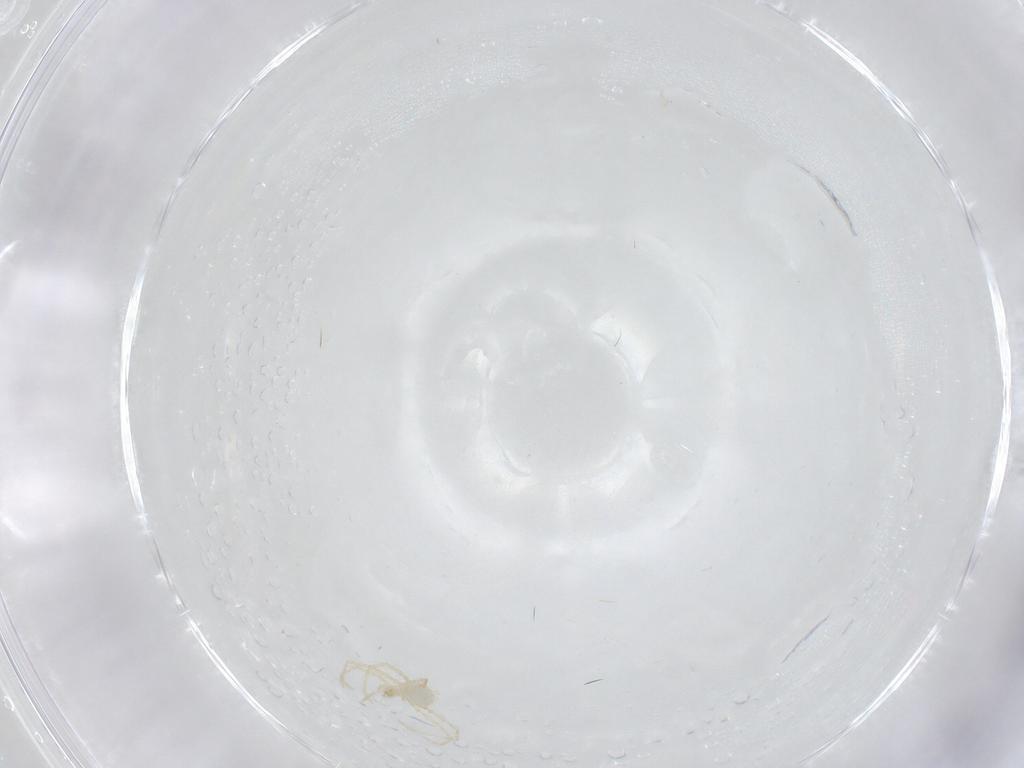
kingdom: Animalia
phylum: Arthropoda
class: Arachnida
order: Trombidiformes
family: Erythraeidae
